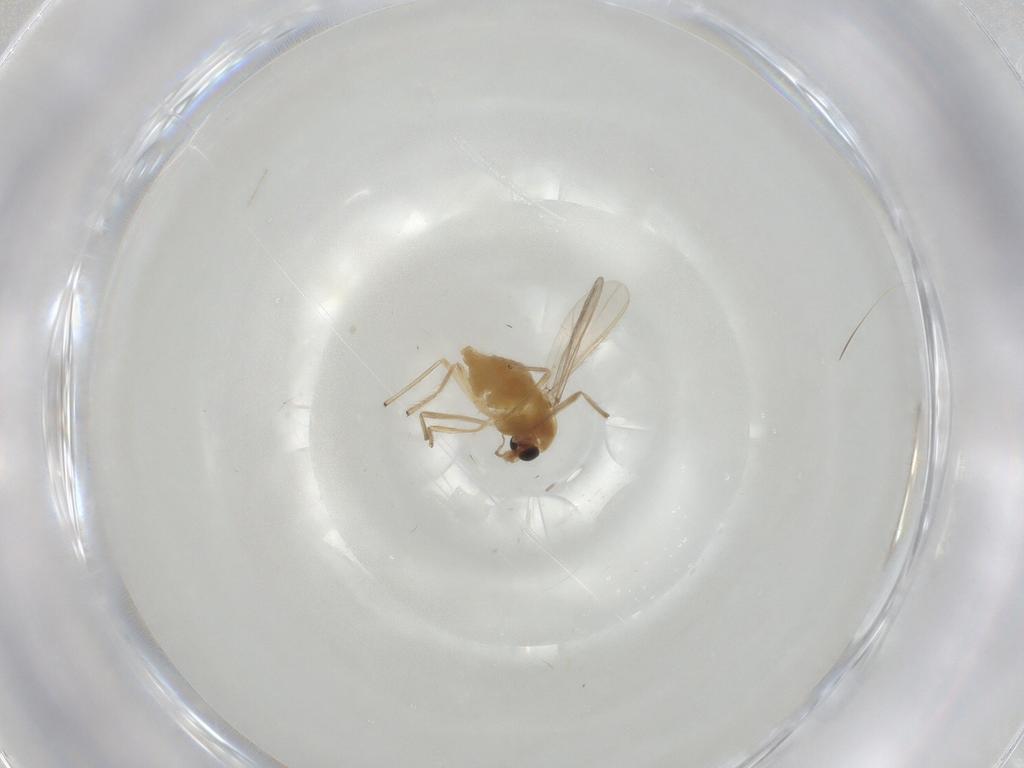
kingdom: Animalia
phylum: Arthropoda
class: Insecta
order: Diptera
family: Chironomidae
